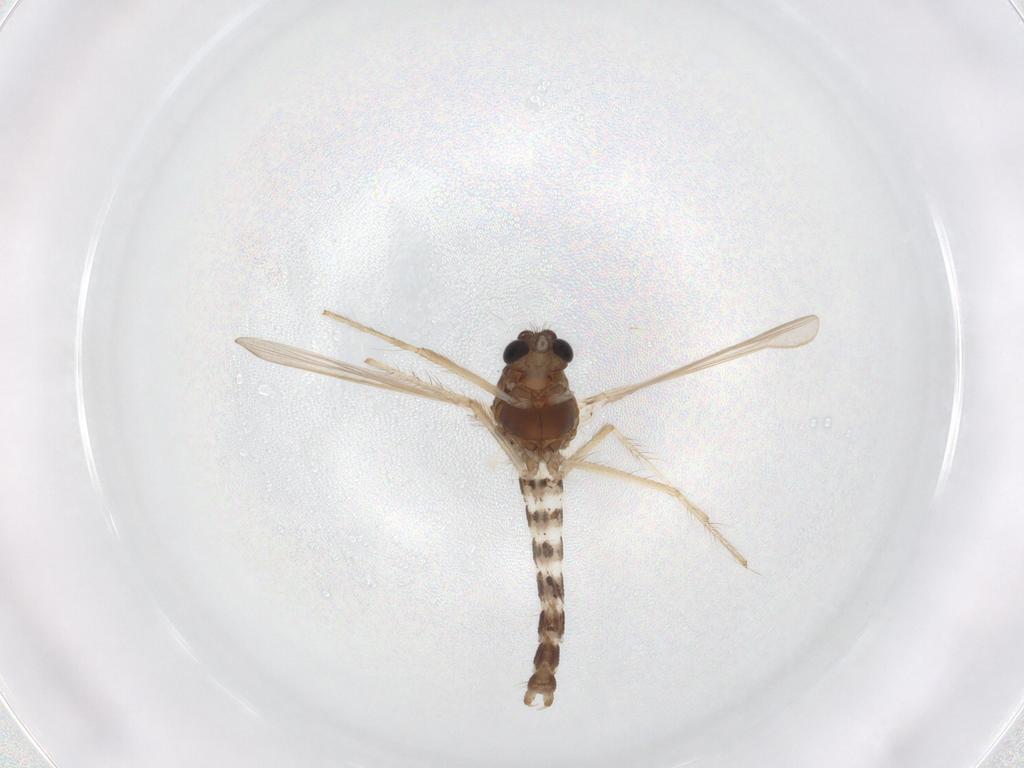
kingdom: Animalia
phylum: Arthropoda
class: Insecta
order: Diptera
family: Chironomidae
